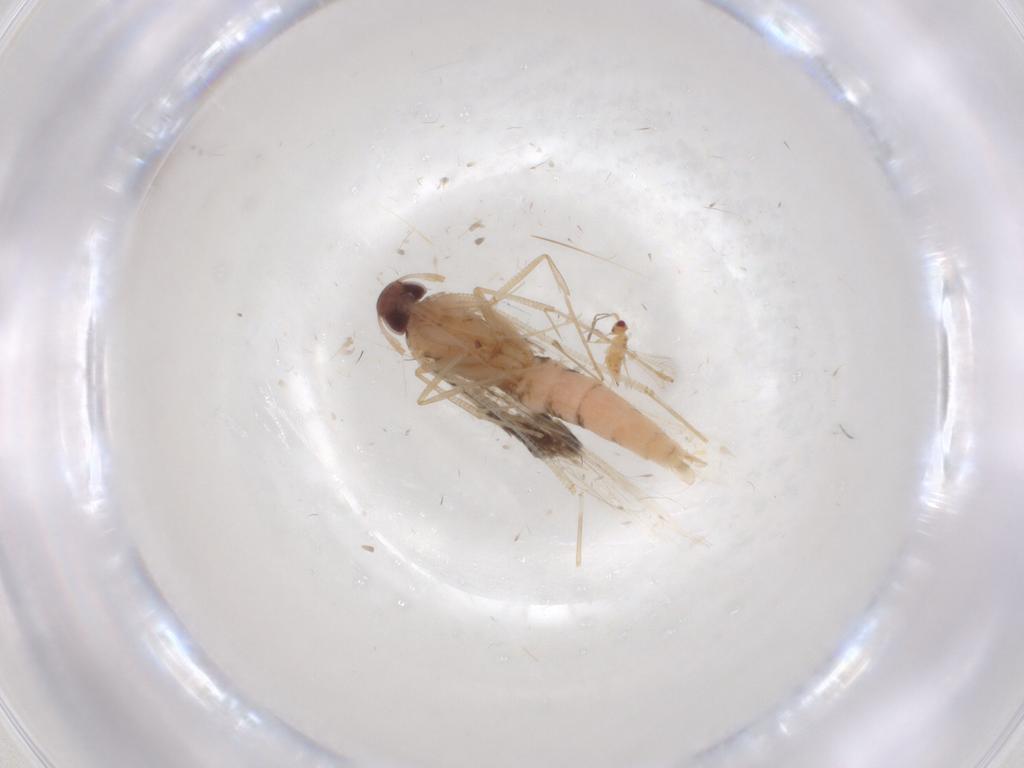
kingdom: Animalia
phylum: Arthropoda
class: Insecta
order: Lepidoptera
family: Cosmopterigidae
